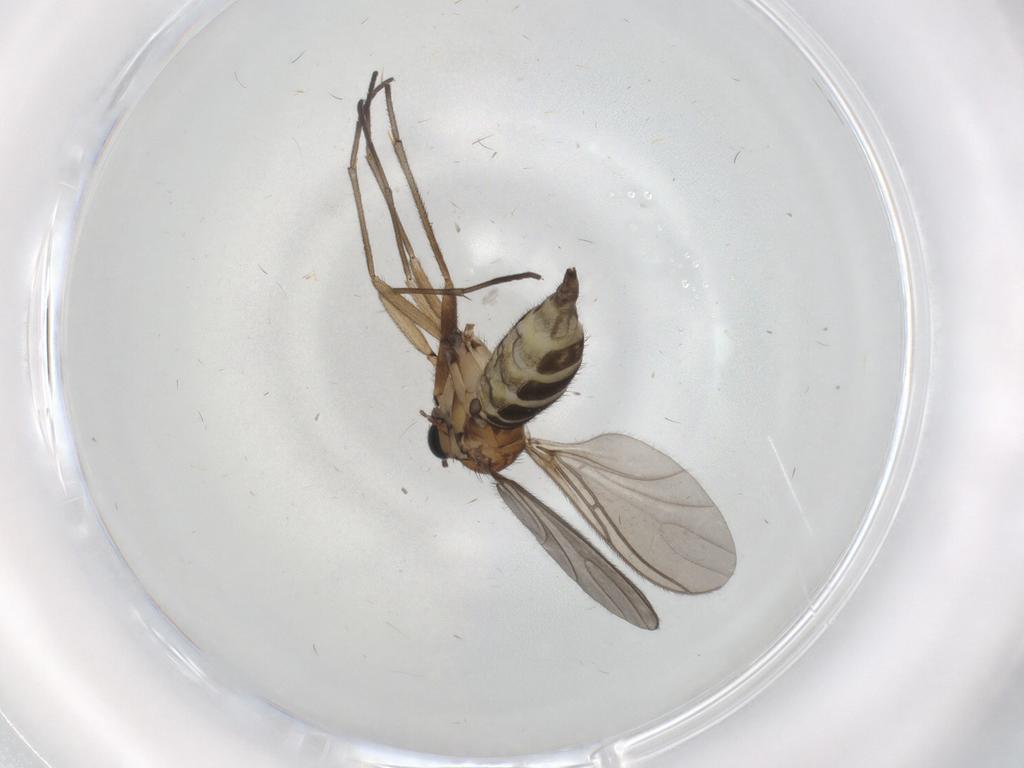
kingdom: Animalia
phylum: Arthropoda
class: Insecta
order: Diptera
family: Sciaridae
